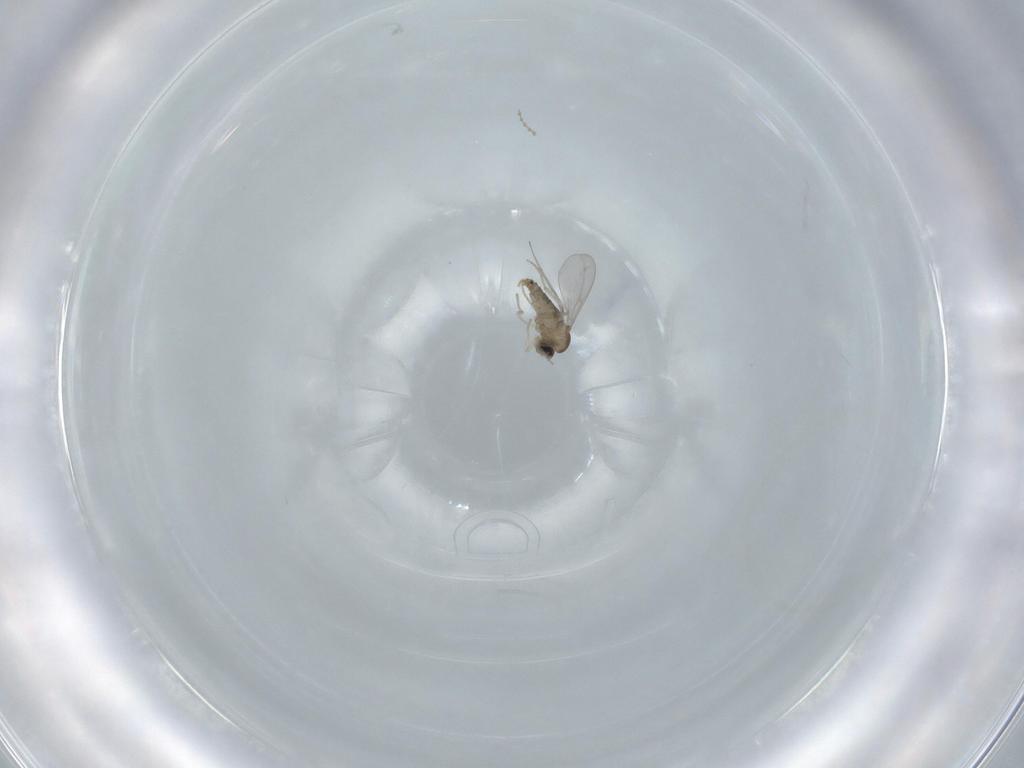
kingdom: Animalia
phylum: Arthropoda
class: Insecta
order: Diptera
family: Cecidomyiidae
